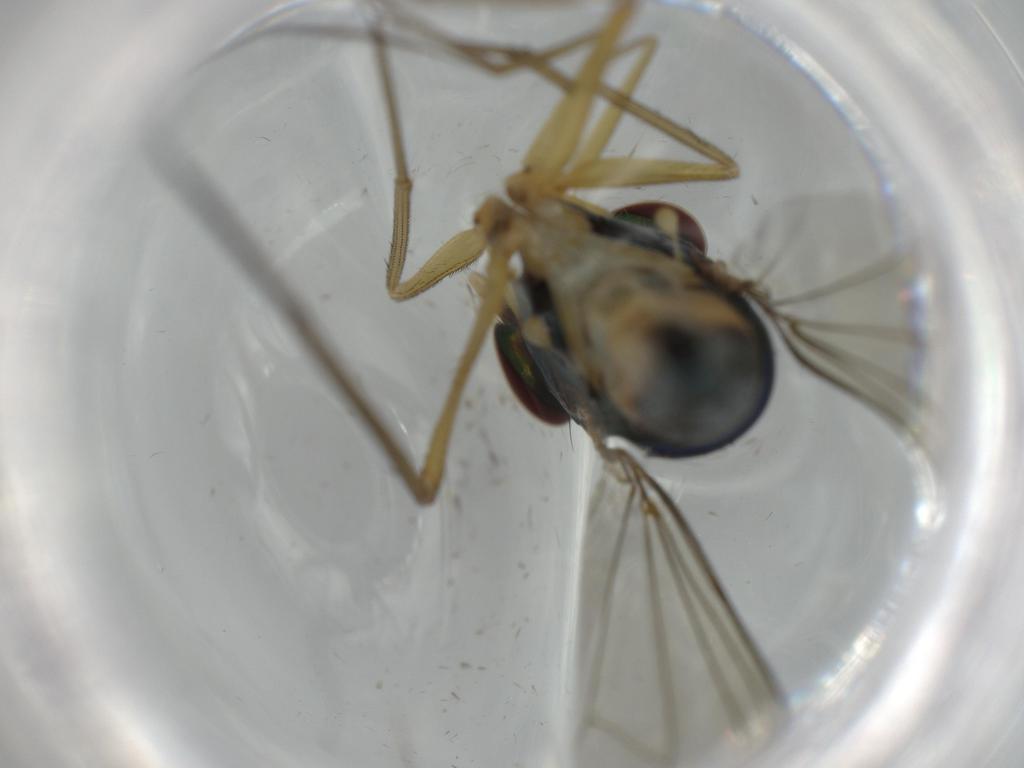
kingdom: Animalia
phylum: Arthropoda
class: Insecta
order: Diptera
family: Dolichopodidae
